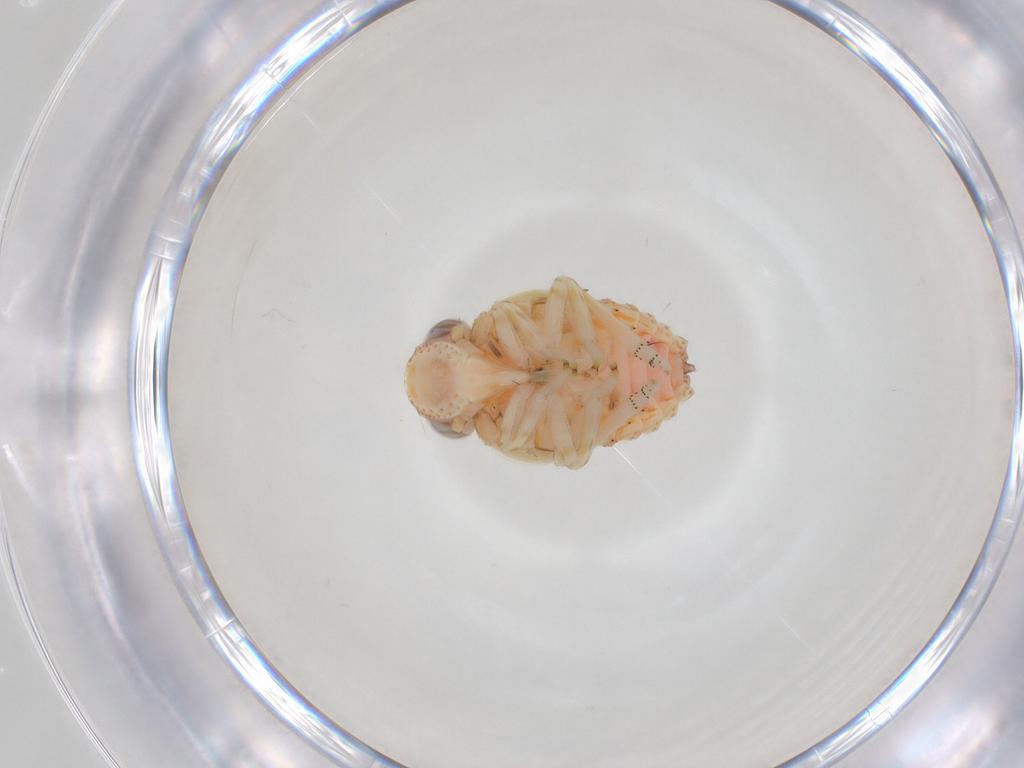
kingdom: Animalia
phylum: Arthropoda
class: Insecta
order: Hemiptera
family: Issidae
